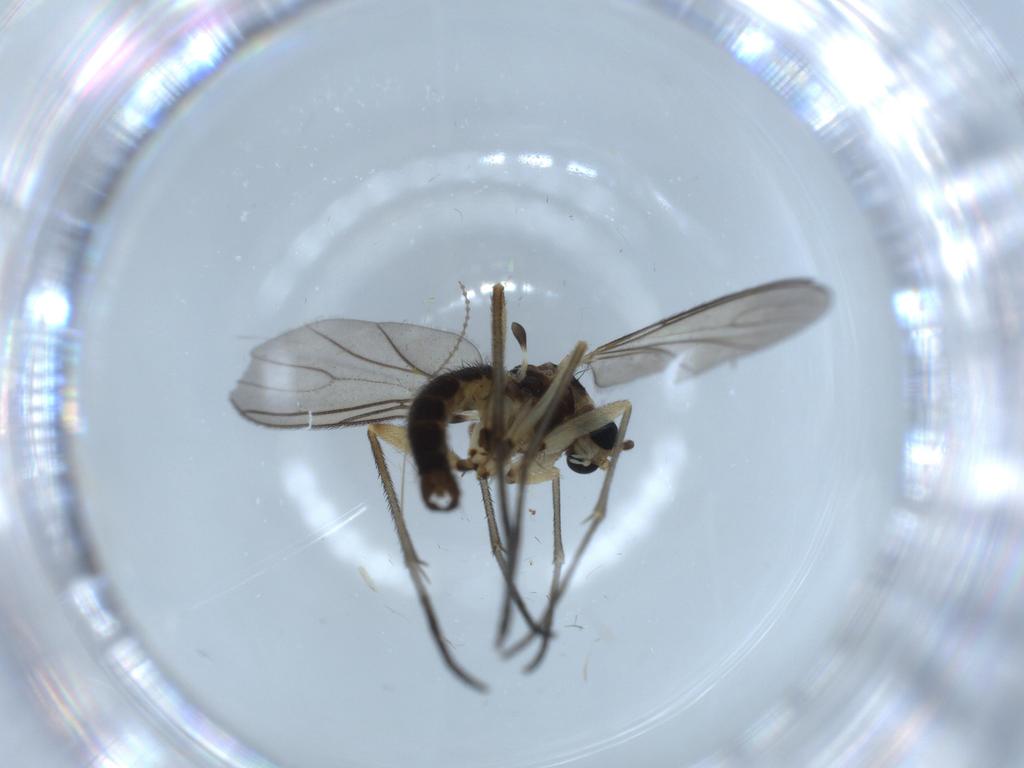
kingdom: Animalia
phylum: Arthropoda
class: Insecta
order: Diptera
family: Sciaridae
